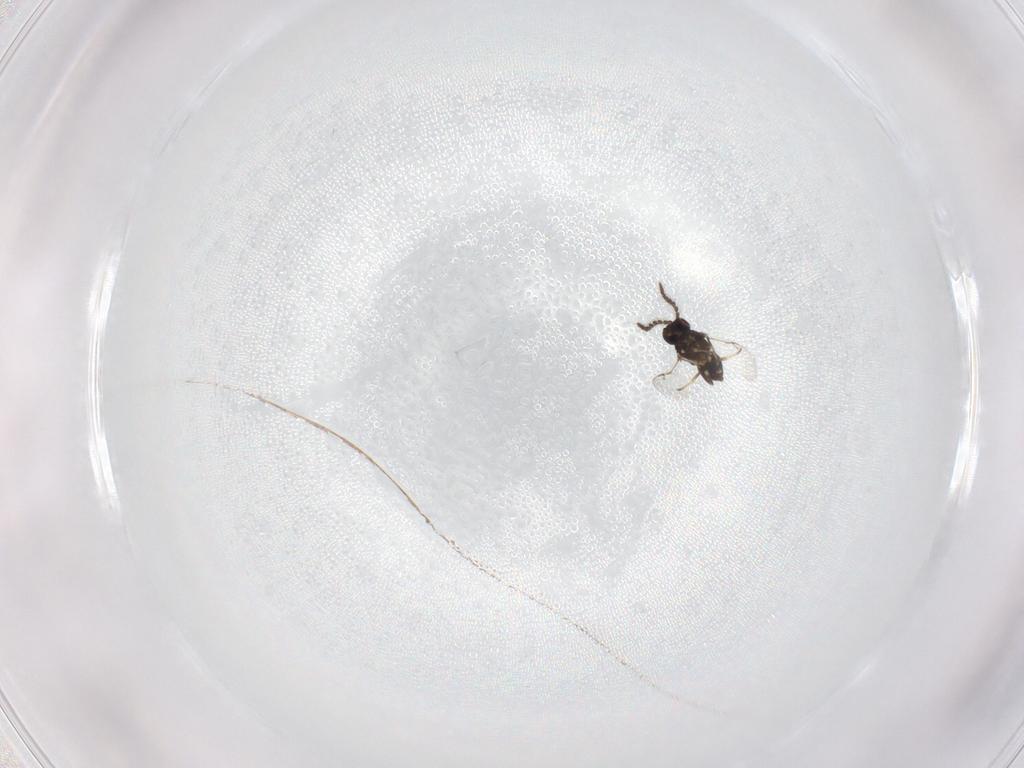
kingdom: Animalia
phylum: Arthropoda
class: Insecta
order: Hymenoptera
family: Encyrtidae
